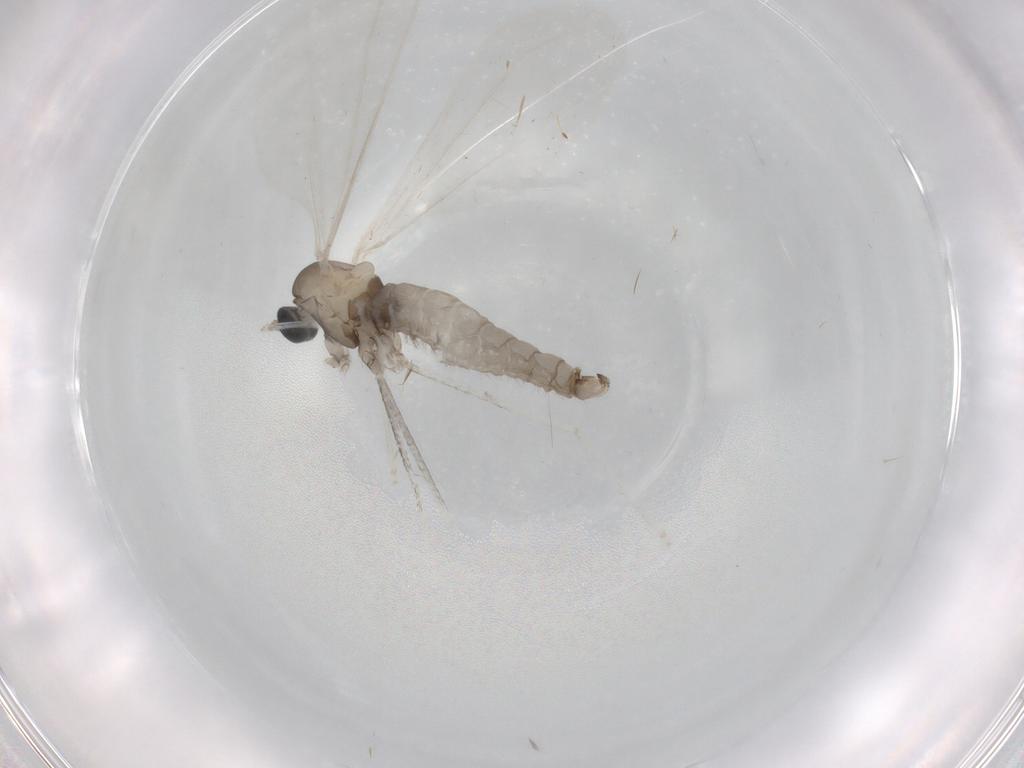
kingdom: Animalia
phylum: Arthropoda
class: Insecta
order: Diptera
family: Cecidomyiidae
